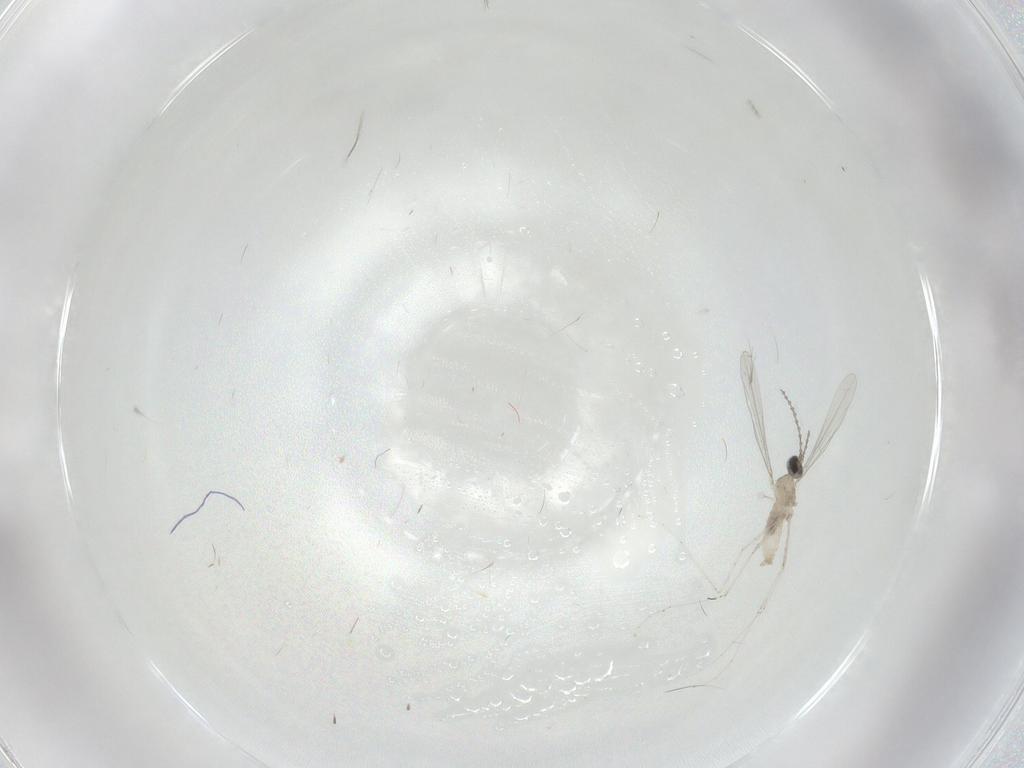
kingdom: Animalia
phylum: Arthropoda
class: Insecta
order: Diptera
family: Cecidomyiidae
